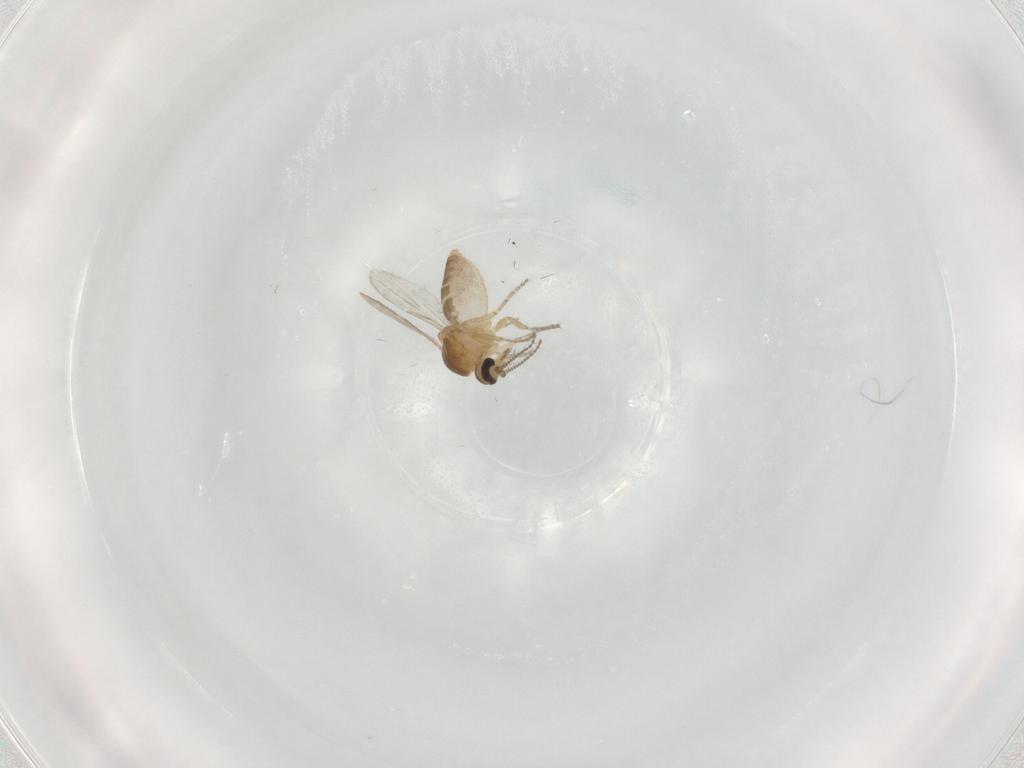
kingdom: Animalia
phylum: Arthropoda
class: Insecta
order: Diptera
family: Ceratopogonidae
